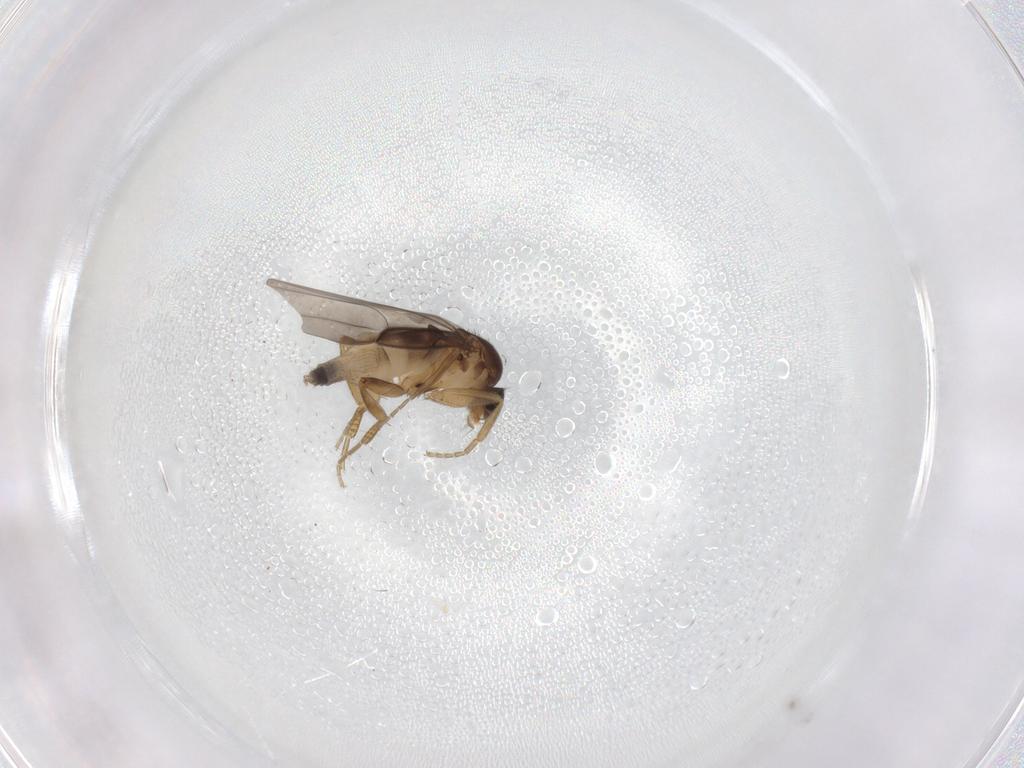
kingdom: Animalia
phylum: Arthropoda
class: Insecta
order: Diptera
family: Phoridae
